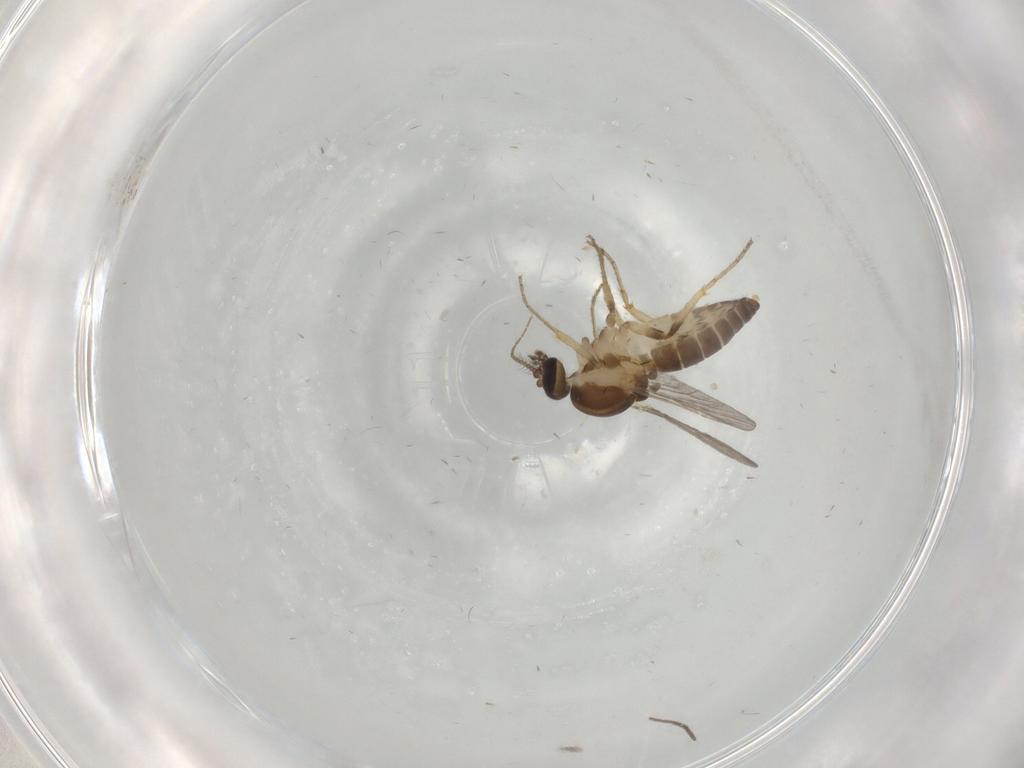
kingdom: Animalia
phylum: Arthropoda
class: Insecta
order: Diptera
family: Ceratopogonidae
